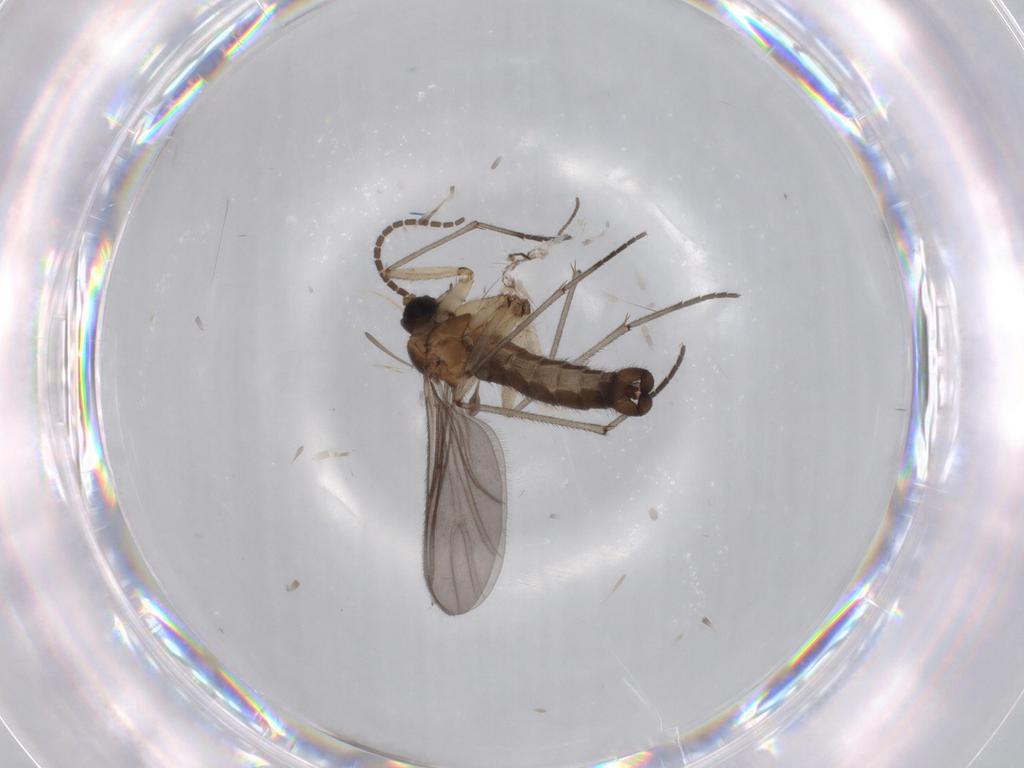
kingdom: Animalia
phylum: Arthropoda
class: Insecta
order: Diptera
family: Sciaridae
